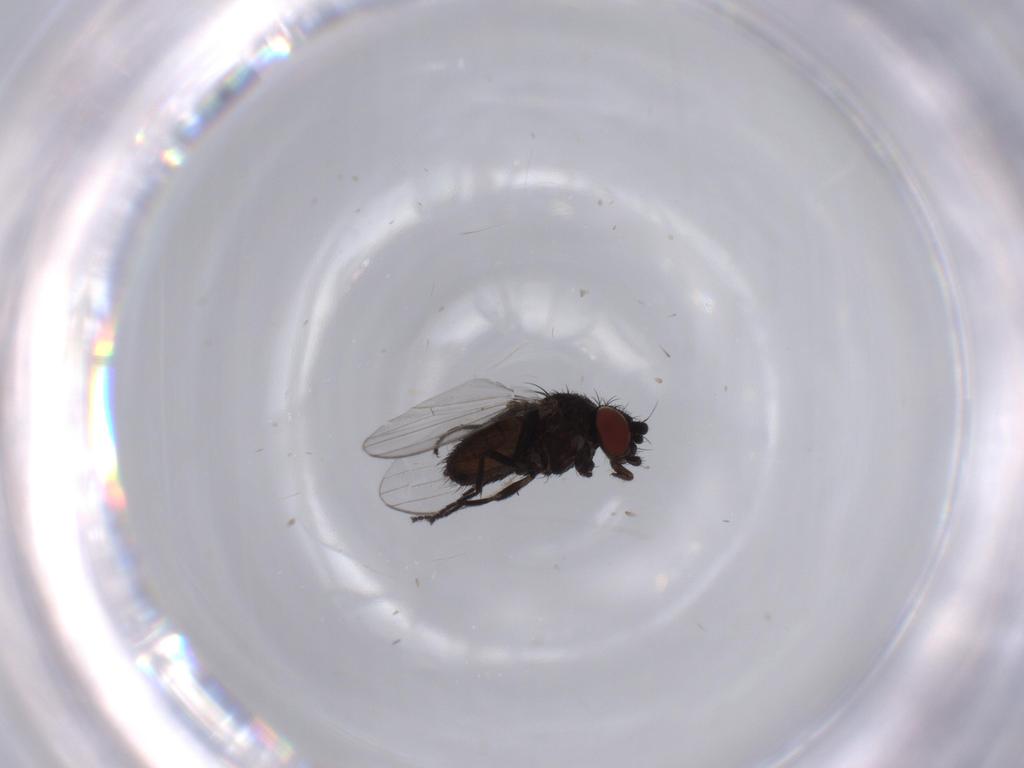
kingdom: Animalia
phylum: Arthropoda
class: Insecta
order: Diptera
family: Milichiidae
